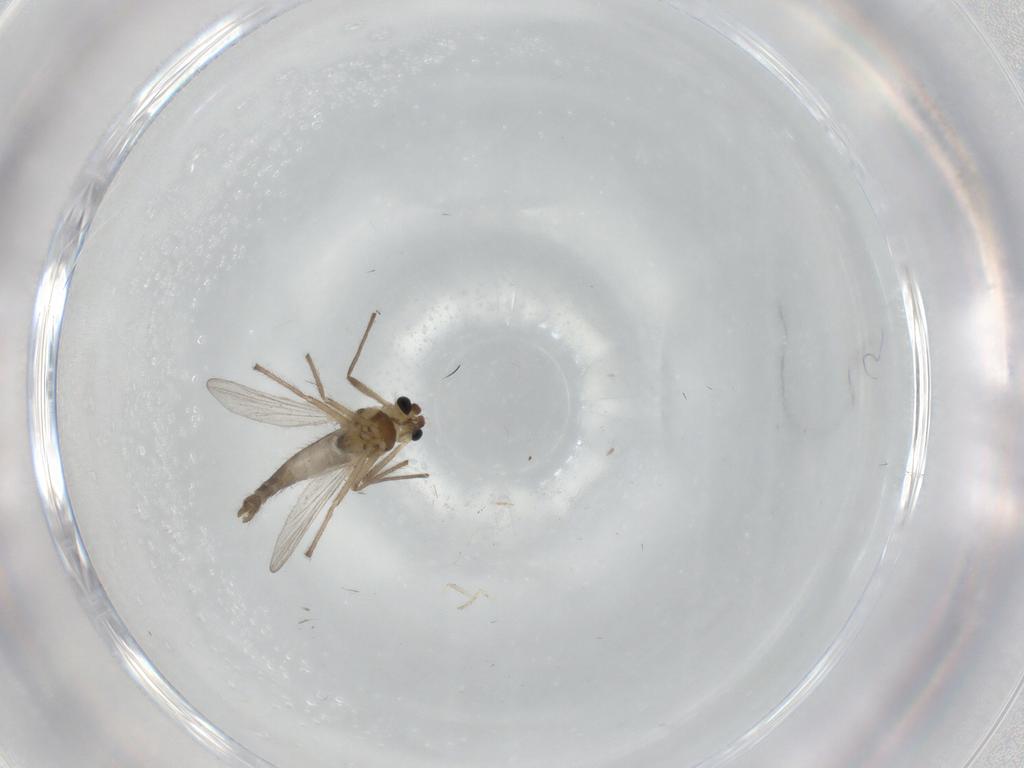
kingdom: Animalia
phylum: Arthropoda
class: Insecta
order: Diptera
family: Chironomidae
